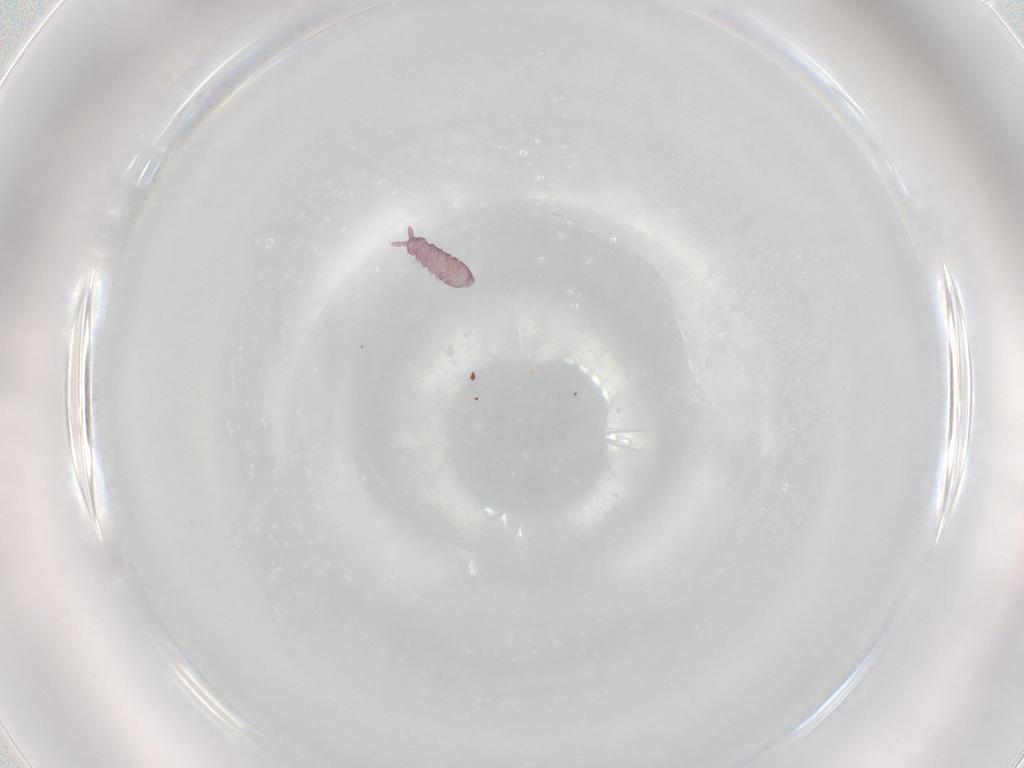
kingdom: Animalia
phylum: Arthropoda
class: Collembola
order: Poduromorpha
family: Hypogastruridae
